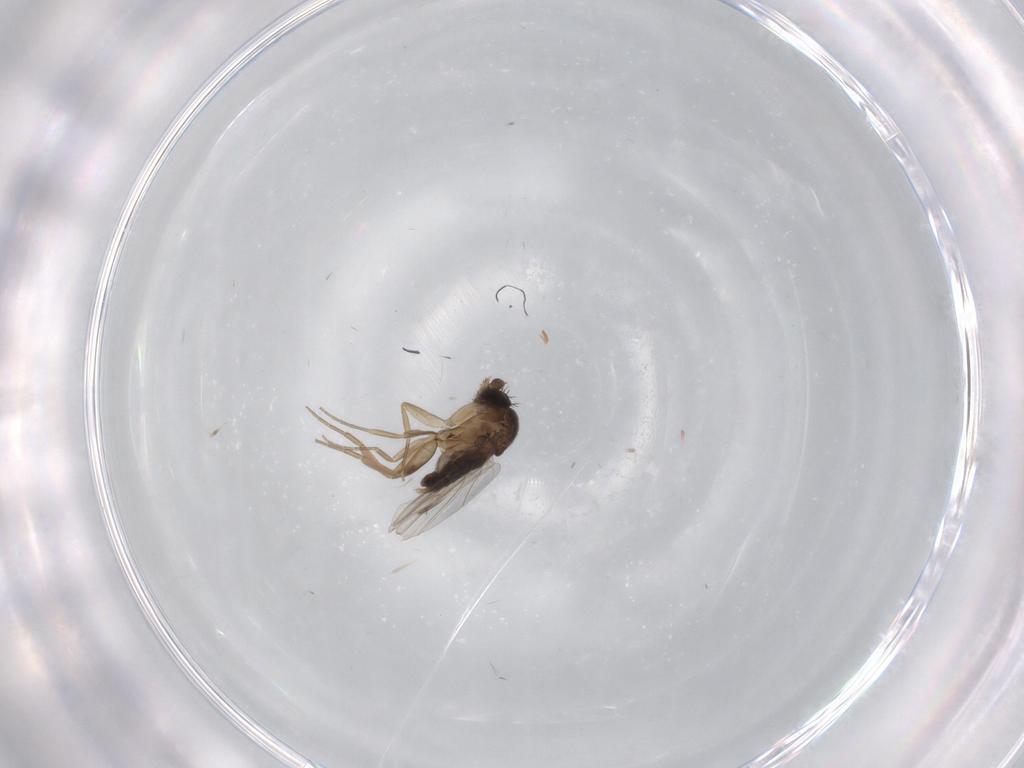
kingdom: Animalia
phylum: Arthropoda
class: Insecta
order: Diptera
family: Phoridae
